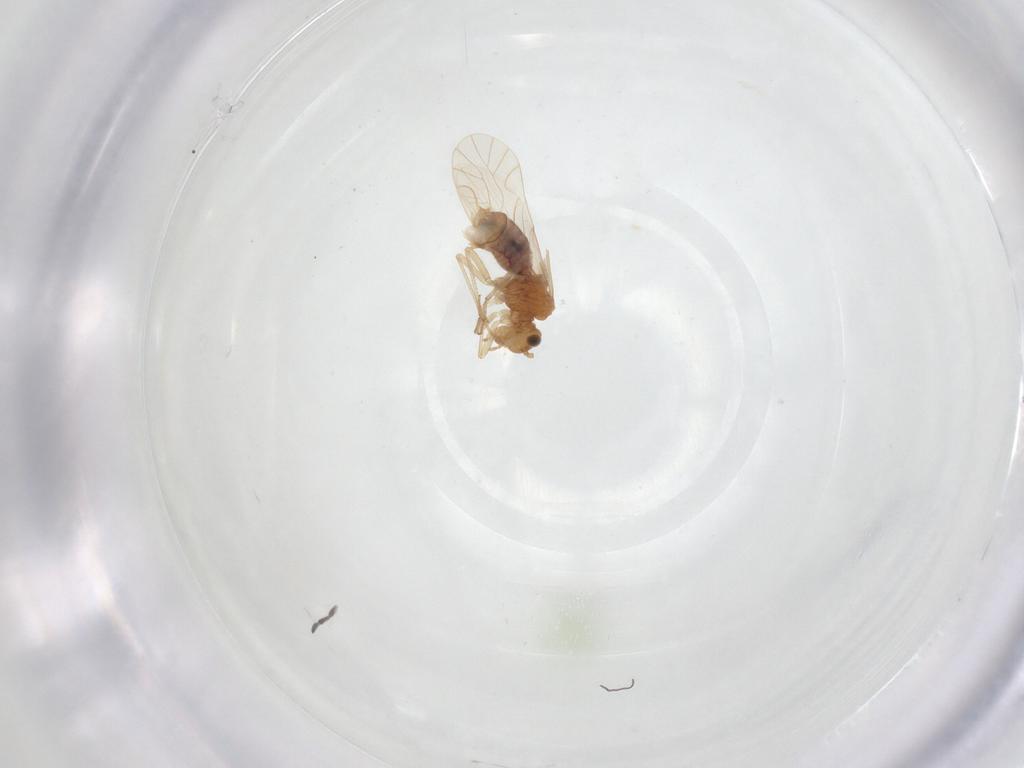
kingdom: Animalia
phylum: Arthropoda
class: Insecta
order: Psocodea
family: Lachesillidae
